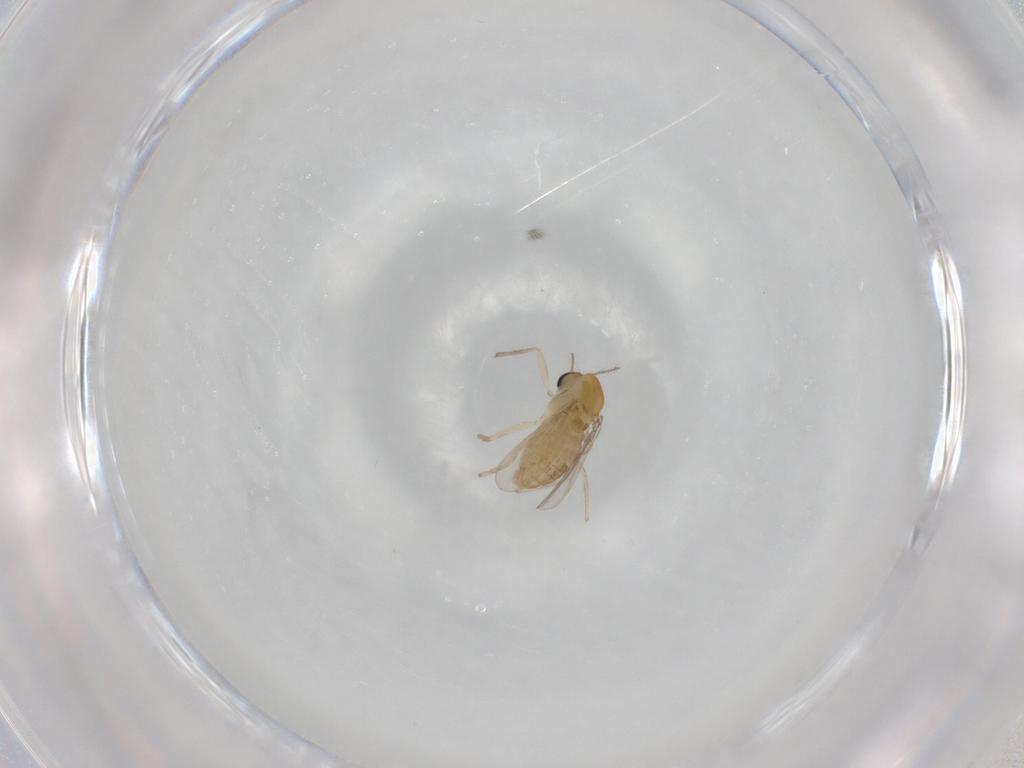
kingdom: Animalia
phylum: Arthropoda
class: Insecta
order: Diptera
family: Chironomidae
